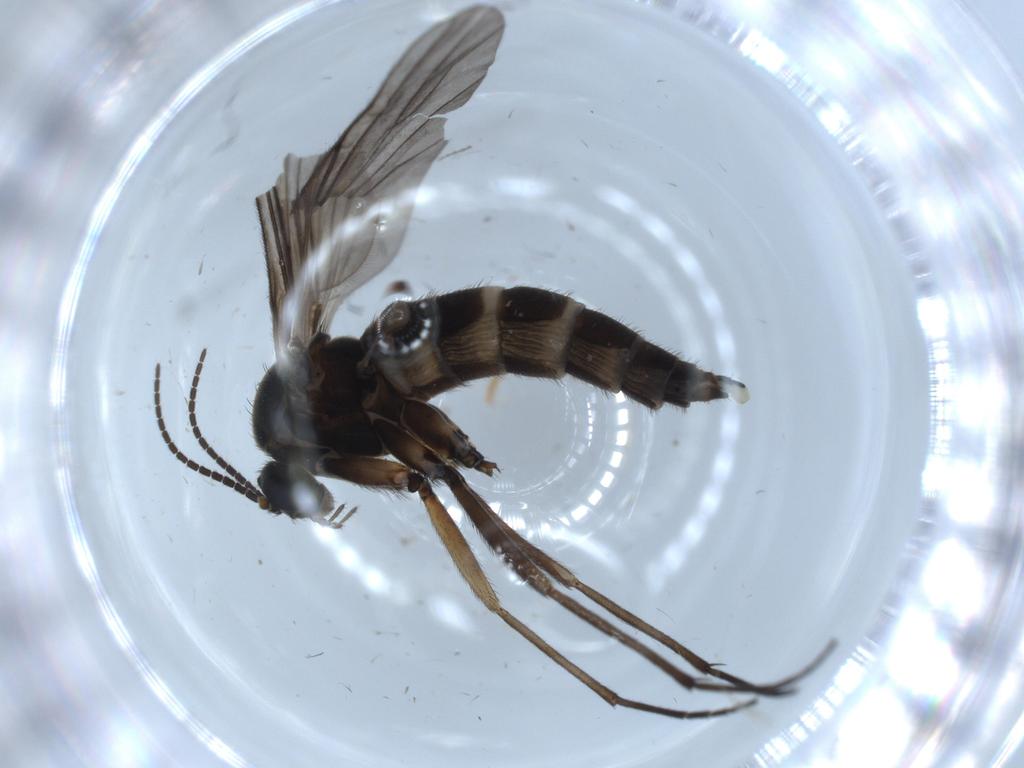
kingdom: Animalia
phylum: Arthropoda
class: Insecta
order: Diptera
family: Sciaridae
